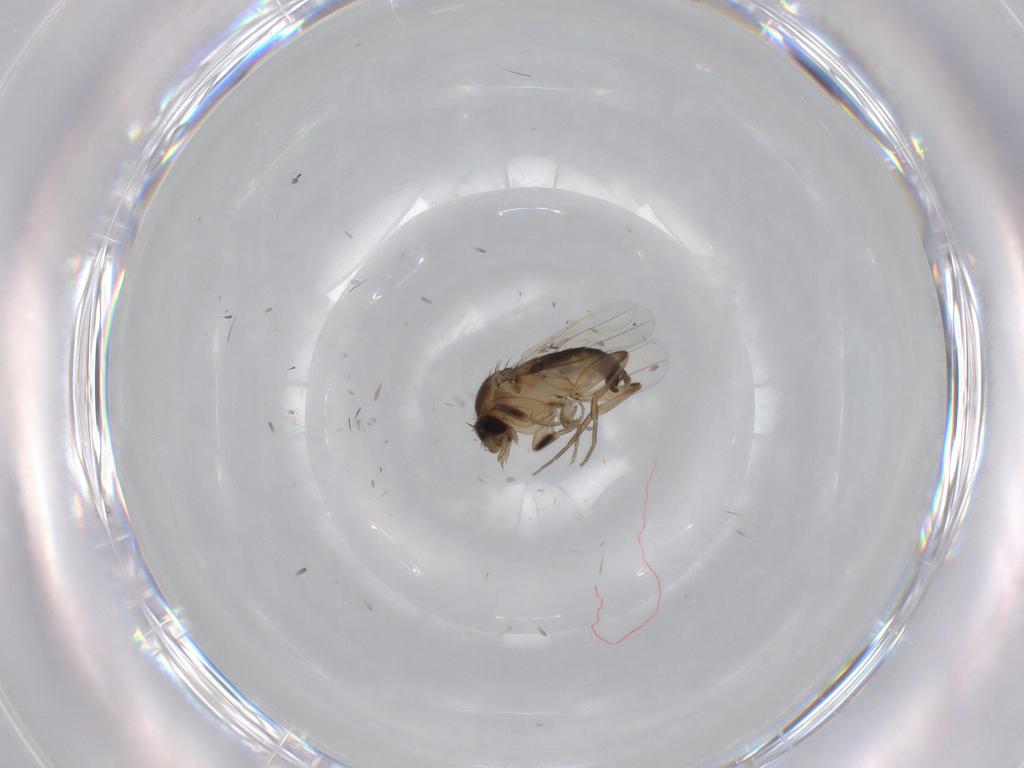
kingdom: Animalia
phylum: Arthropoda
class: Insecta
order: Diptera
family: Phoridae
